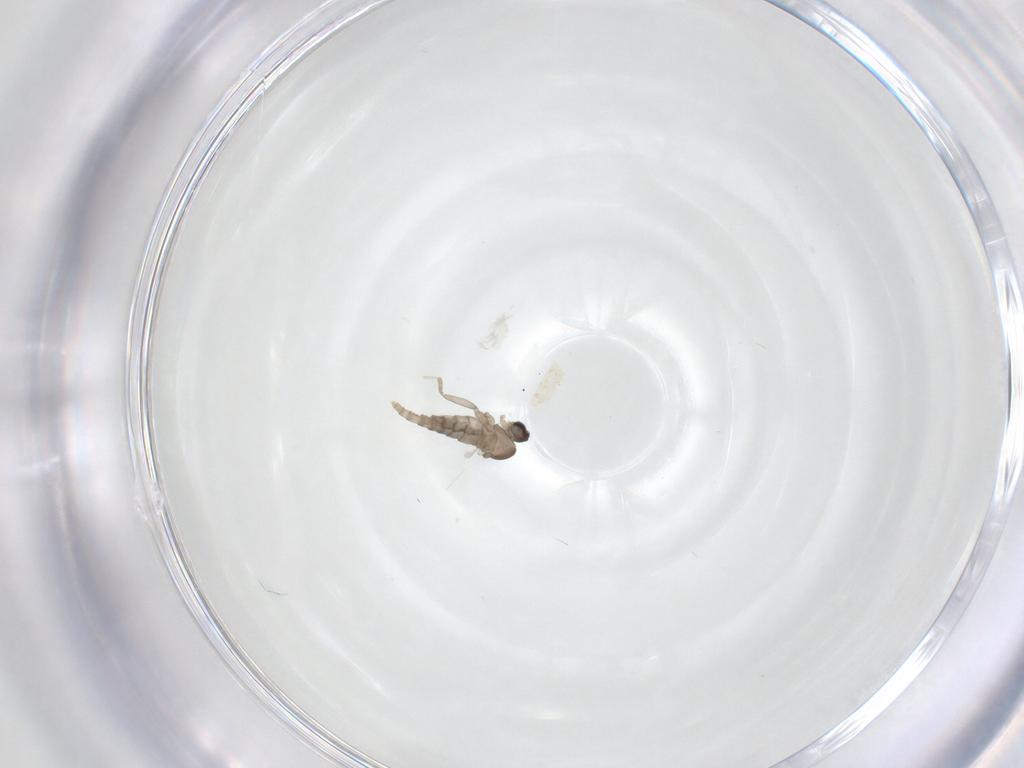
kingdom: Animalia
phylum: Arthropoda
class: Insecta
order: Diptera
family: Cecidomyiidae
